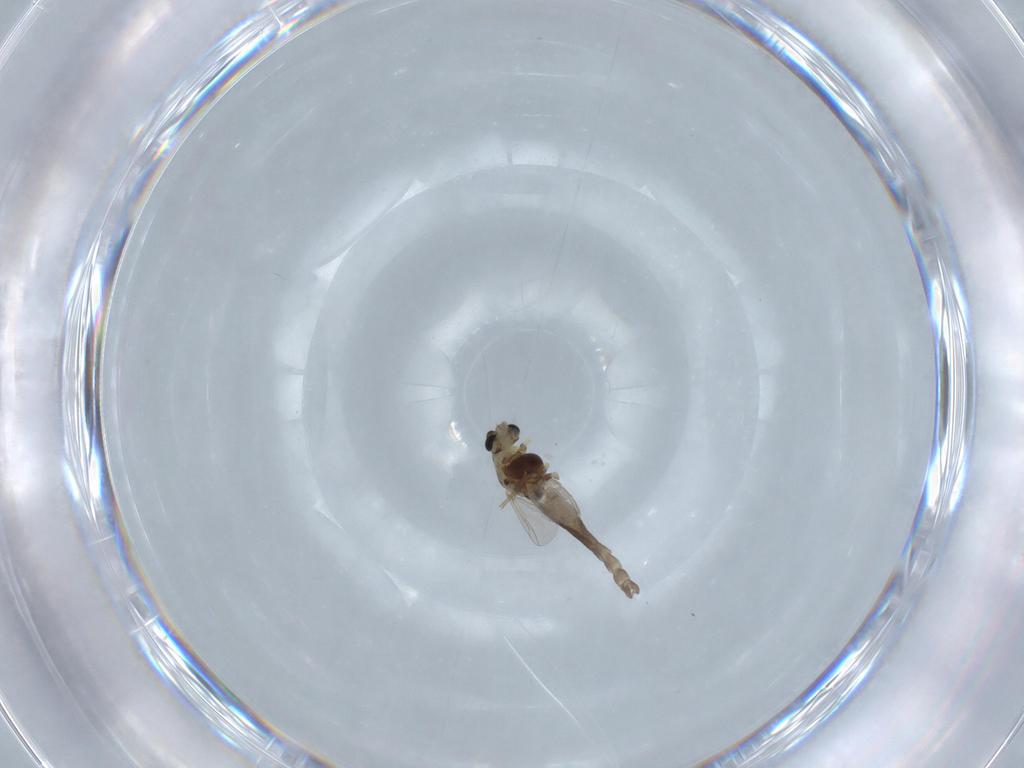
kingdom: Animalia
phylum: Arthropoda
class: Insecta
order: Diptera
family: Chironomidae
